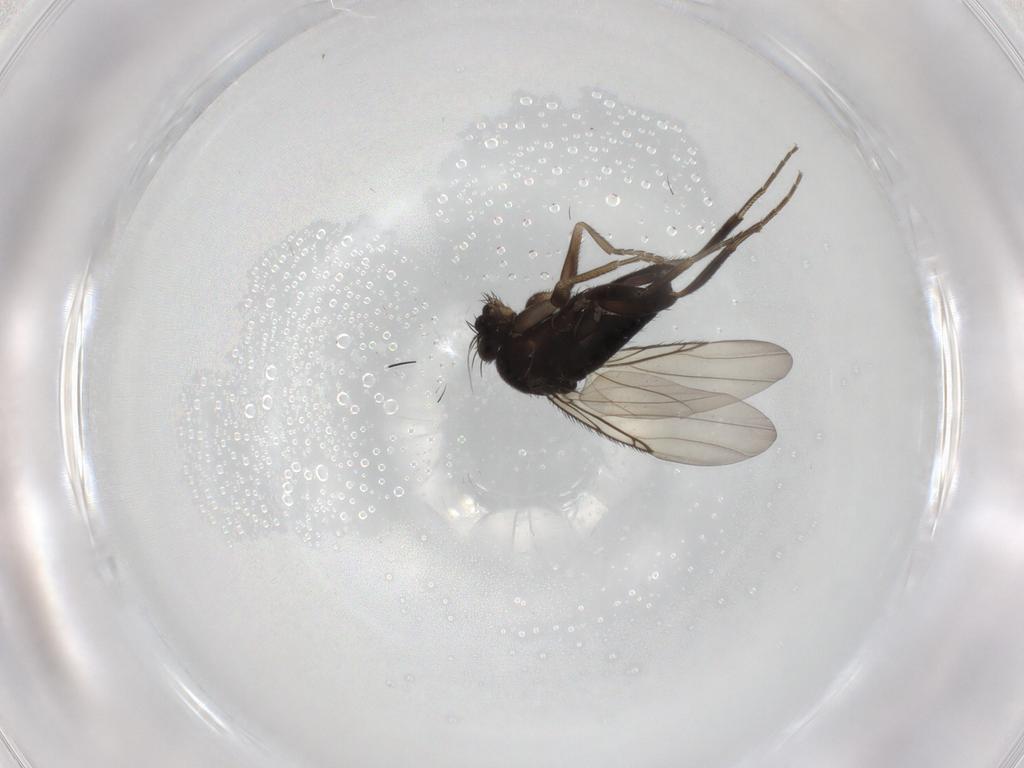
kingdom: Animalia
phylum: Arthropoda
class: Insecta
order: Diptera
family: Phoridae
